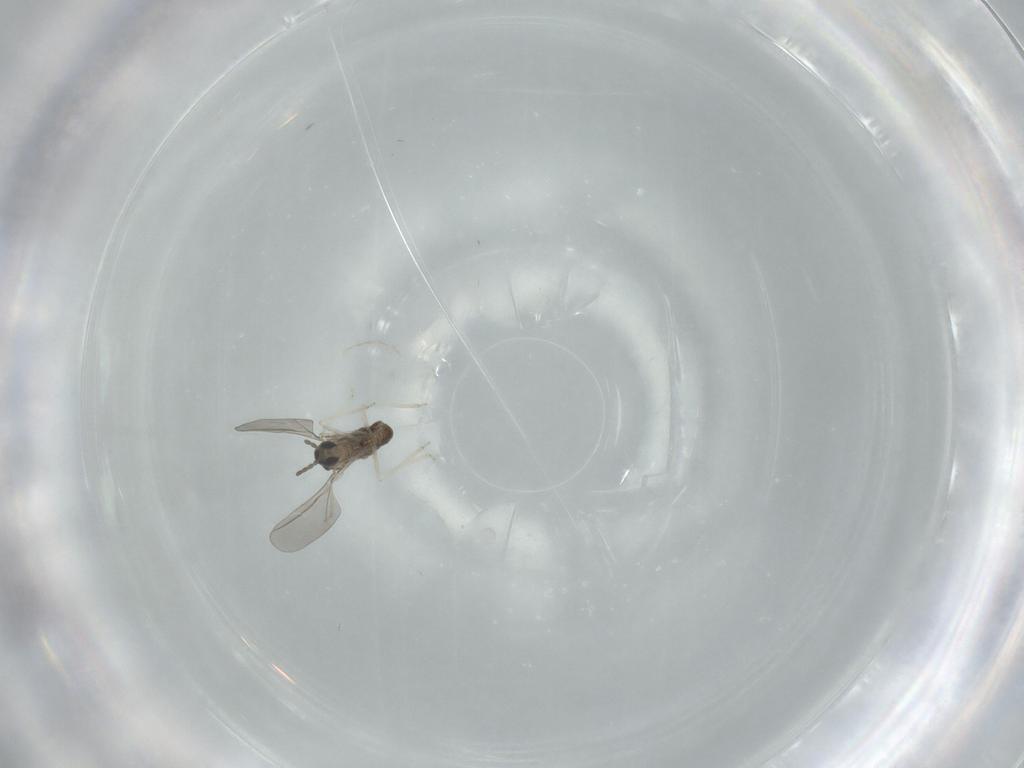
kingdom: Animalia
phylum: Arthropoda
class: Insecta
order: Diptera
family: Cecidomyiidae
